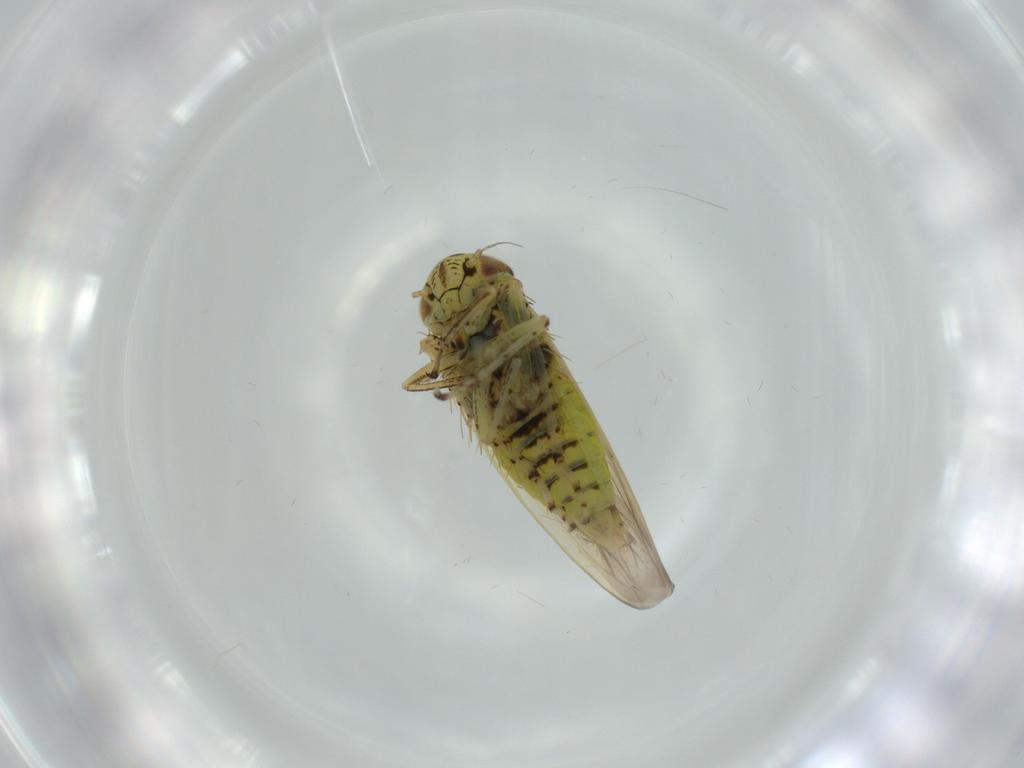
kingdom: Animalia
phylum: Arthropoda
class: Insecta
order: Hemiptera
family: Cicadellidae
